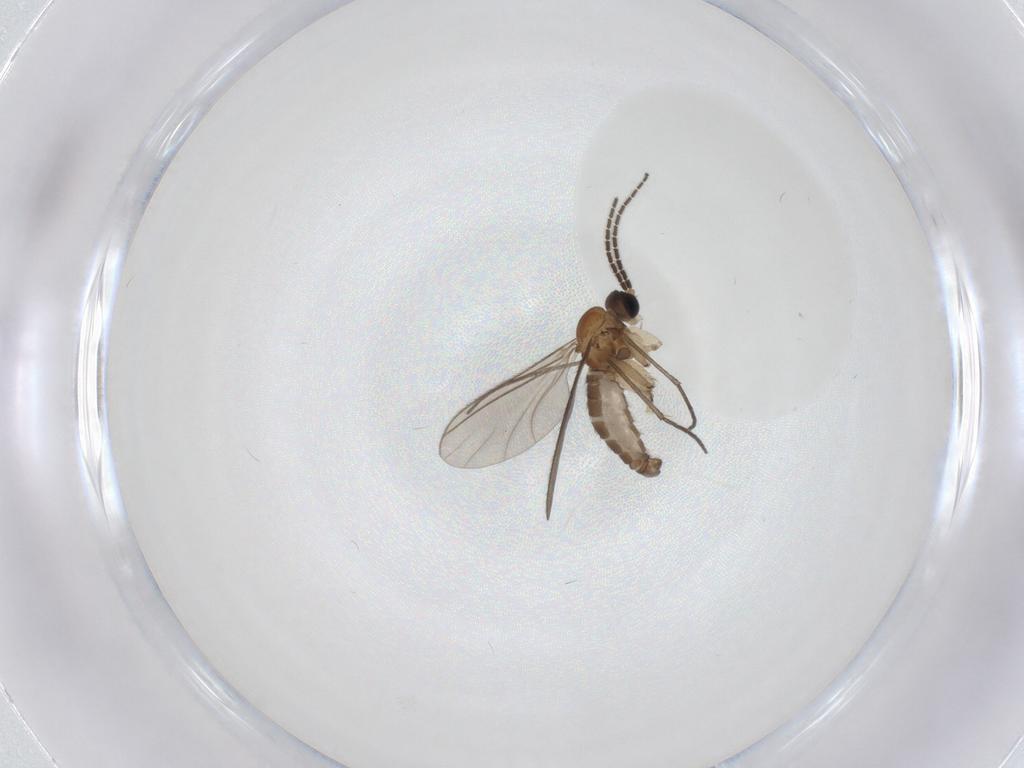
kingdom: Animalia
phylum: Arthropoda
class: Insecta
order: Diptera
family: Sciaridae
